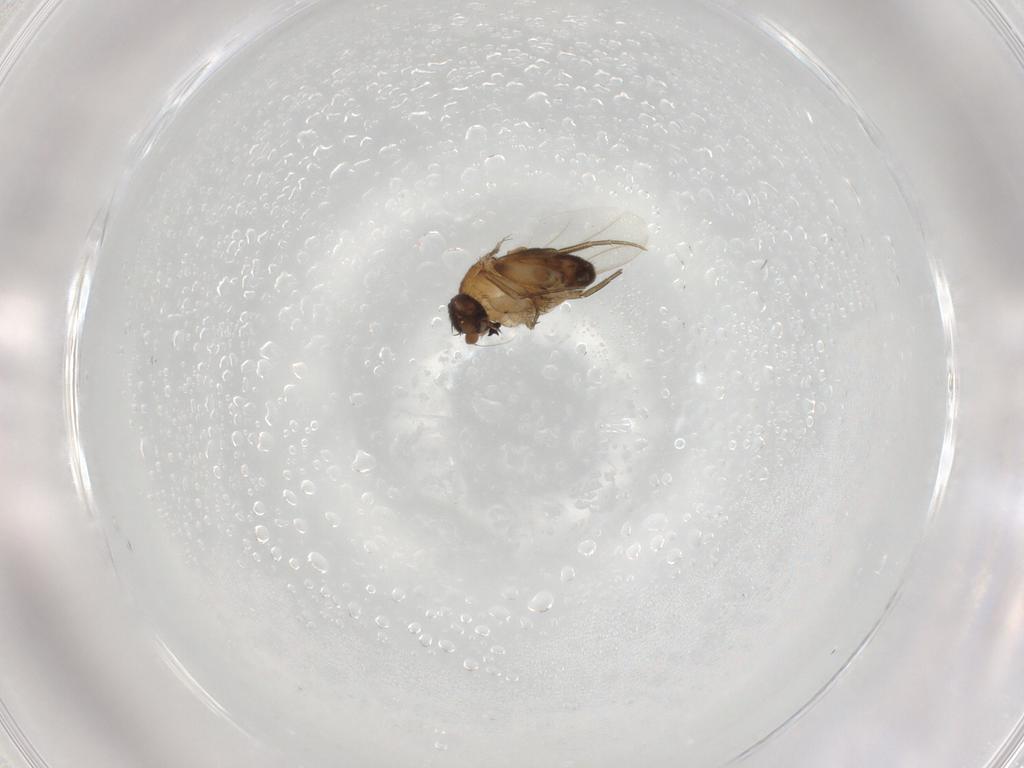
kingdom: Animalia
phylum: Arthropoda
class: Insecta
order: Diptera
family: Phoridae
